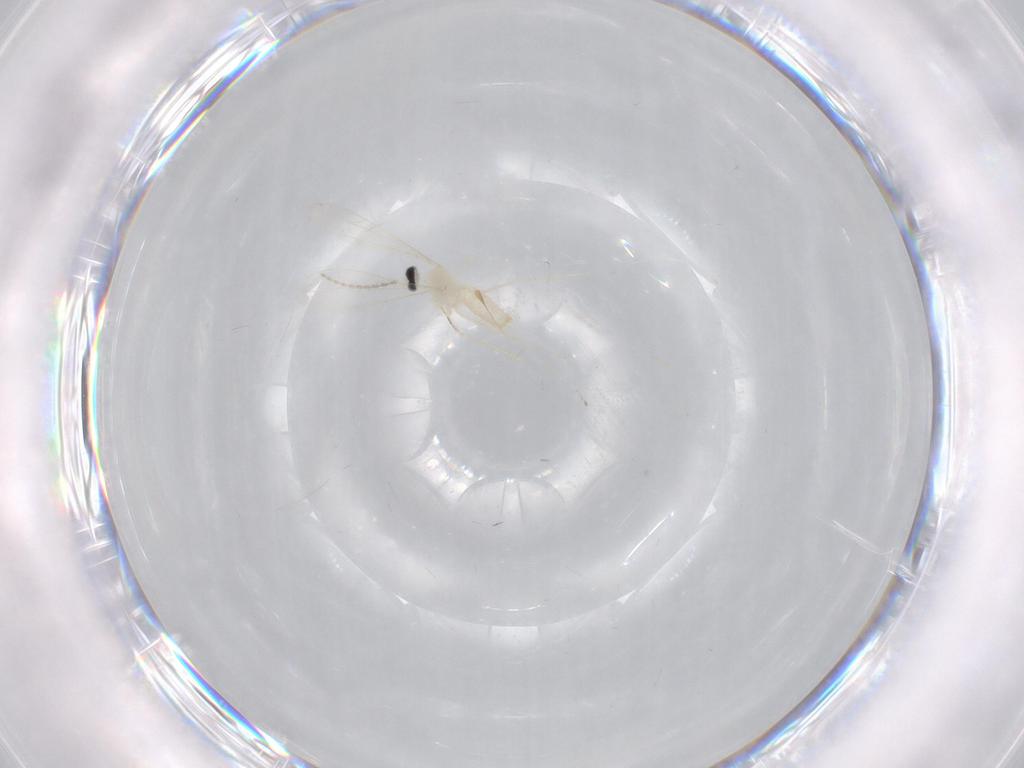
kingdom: Animalia
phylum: Arthropoda
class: Insecta
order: Diptera
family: Cecidomyiidae
